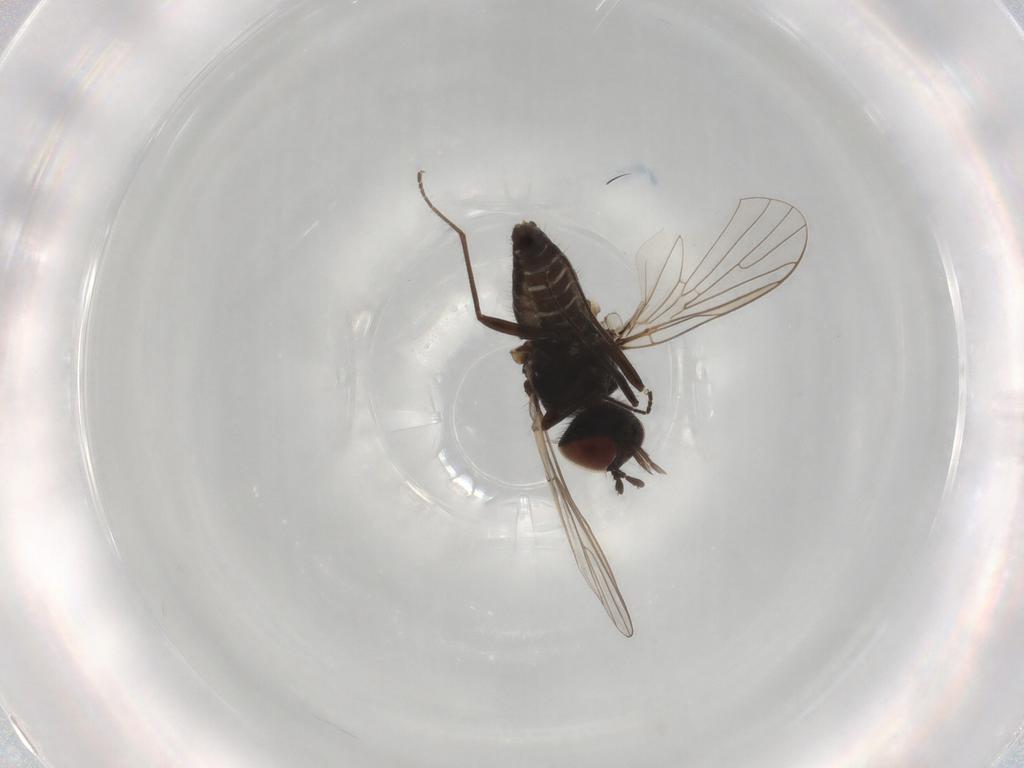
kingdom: Animalia
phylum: Arthropoda
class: Insecta
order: Diptera
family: Bombyliidae
